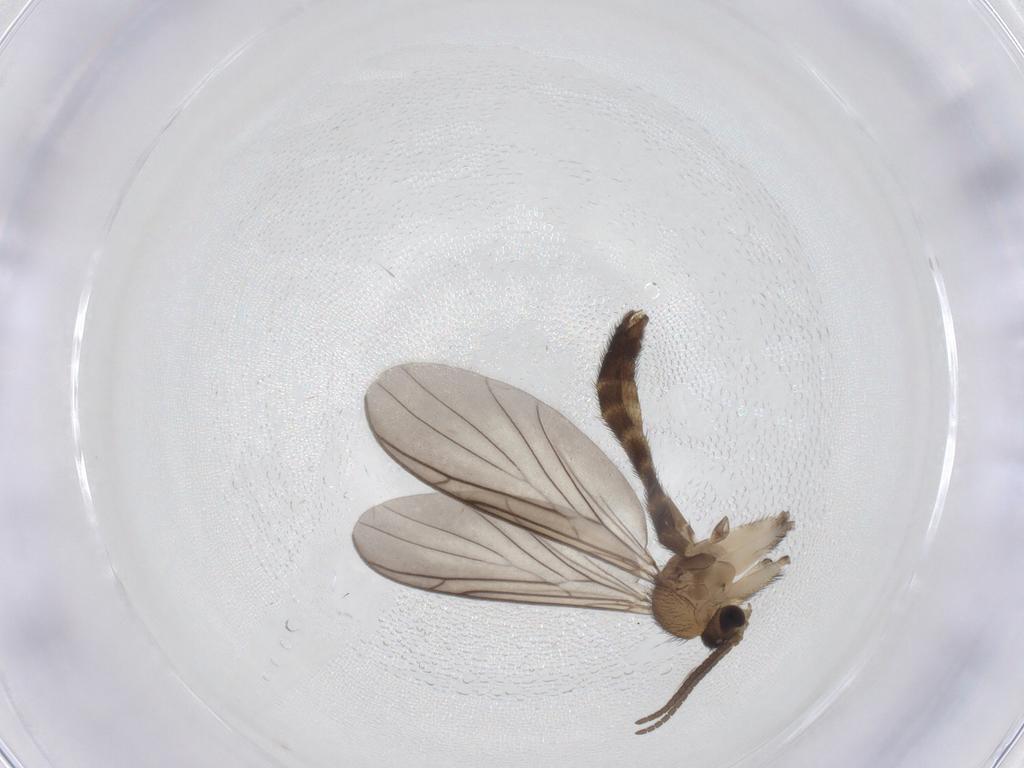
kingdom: Animalia
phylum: Arthropoda
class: Insecta
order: Diptera
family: Keroplatidae
